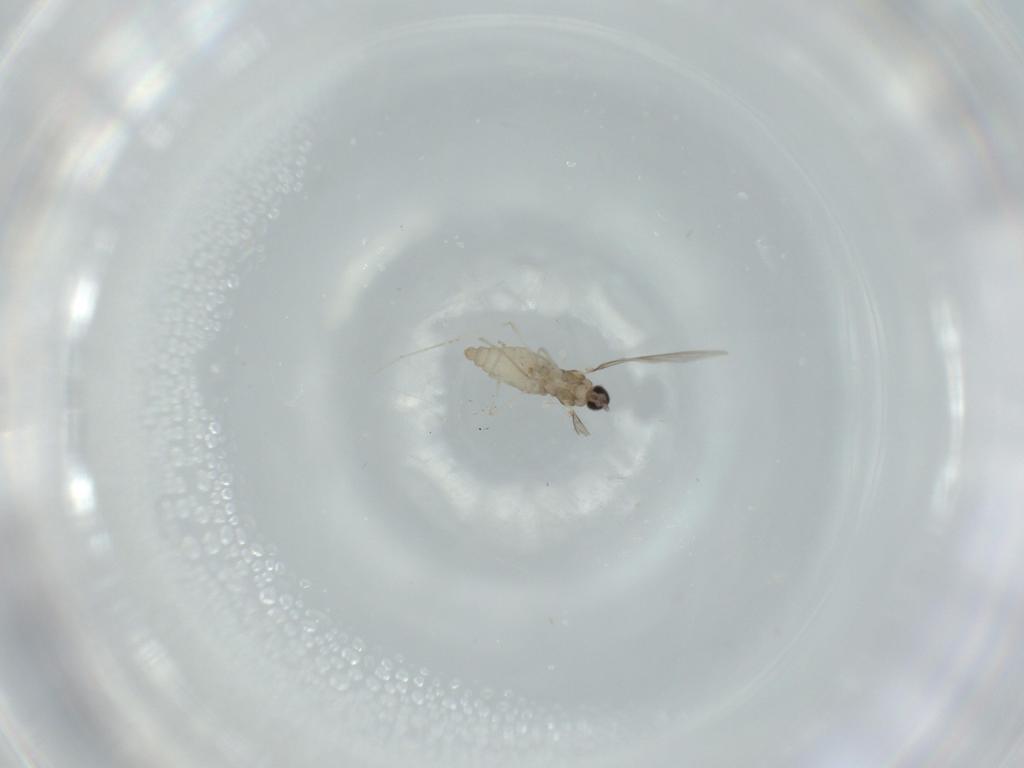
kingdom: Animalia
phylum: Arthropoda
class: Insecta
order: Diptera
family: Cecidomyiidae
